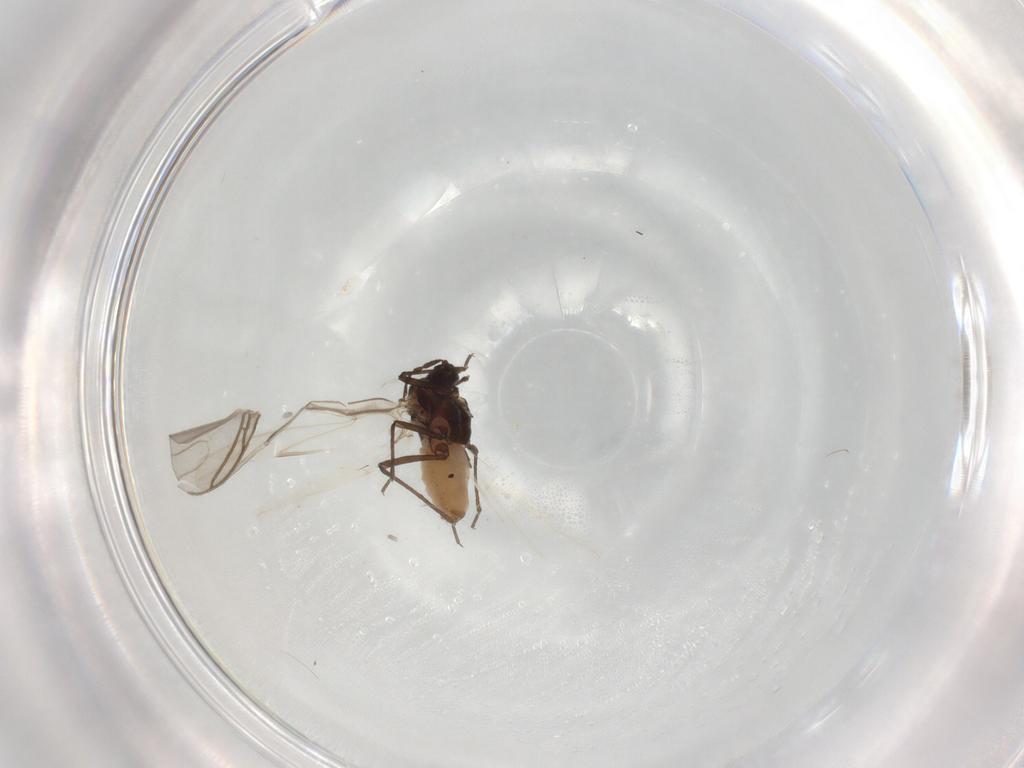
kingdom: Animalia
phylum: Arthropoda
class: Insecta
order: Hemiptera
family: Aphididae
